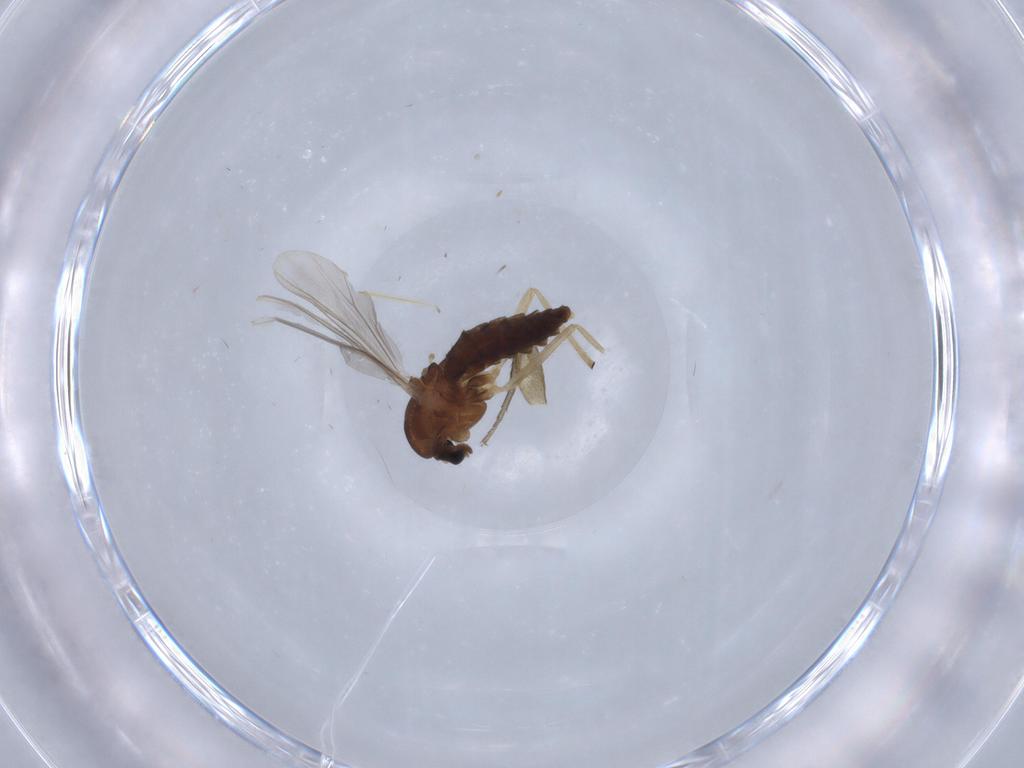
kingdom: Animalia
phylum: Arthropoda
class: Insecta
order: Diptera
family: Chironomidae
